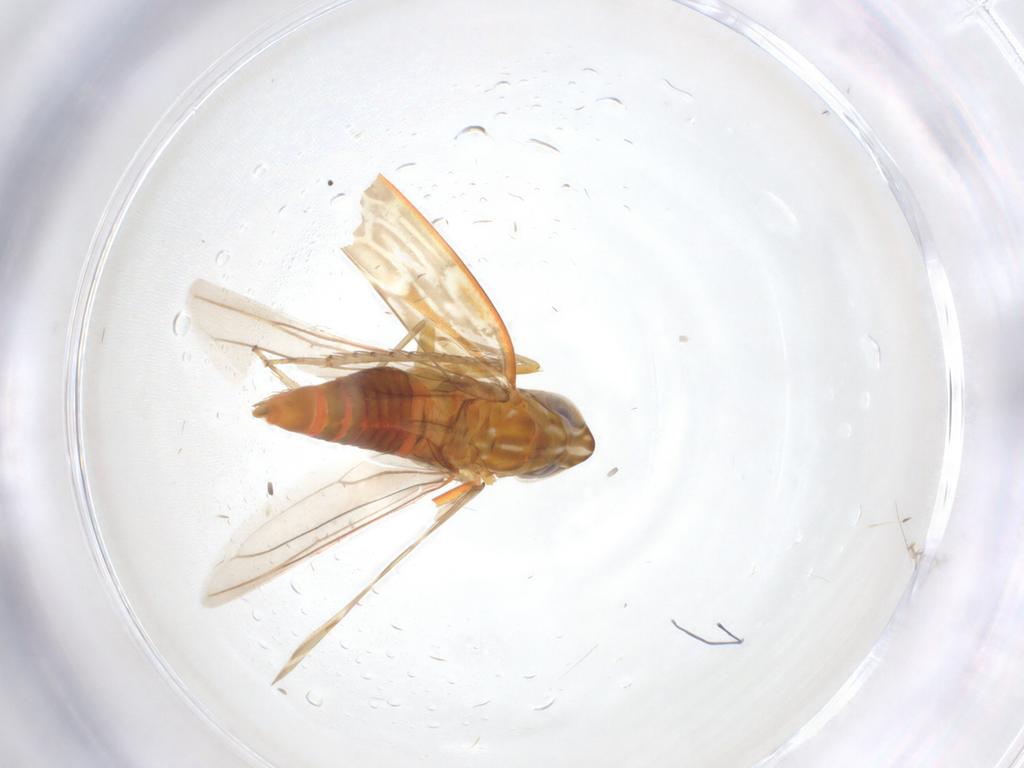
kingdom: Animalia
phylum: Arthropoda
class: Insecta
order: Hemiptera
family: Cicadellidae
